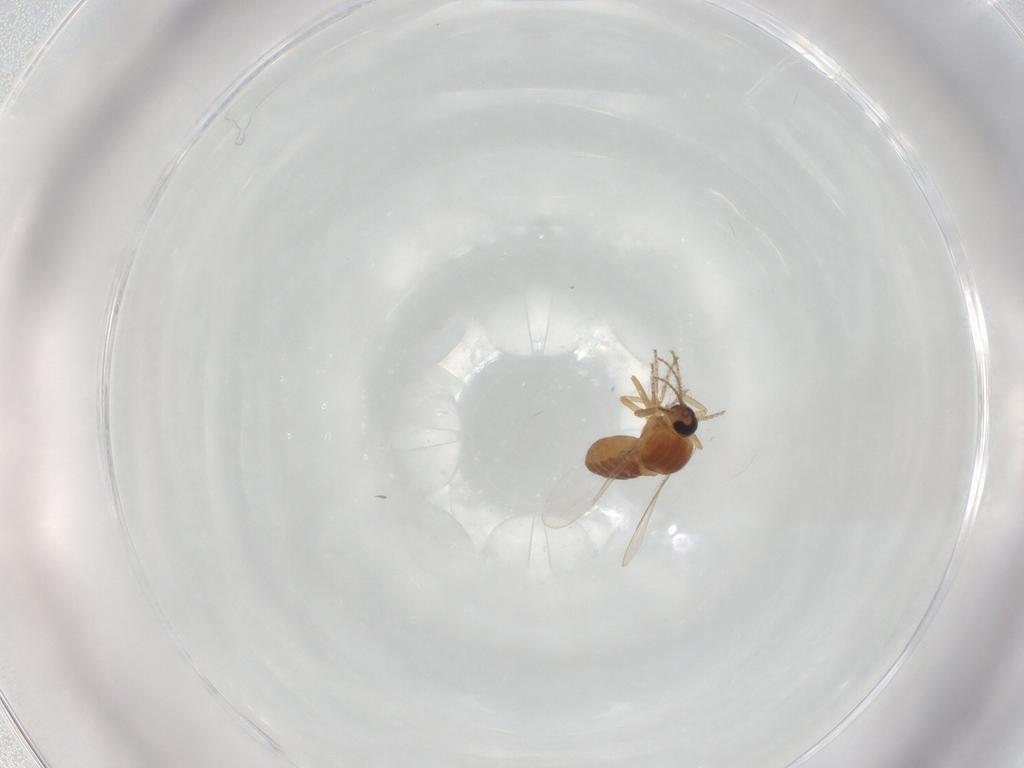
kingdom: Animalia
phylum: Arthropoda
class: Insecta
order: Diptera
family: Ceratopogonidae
